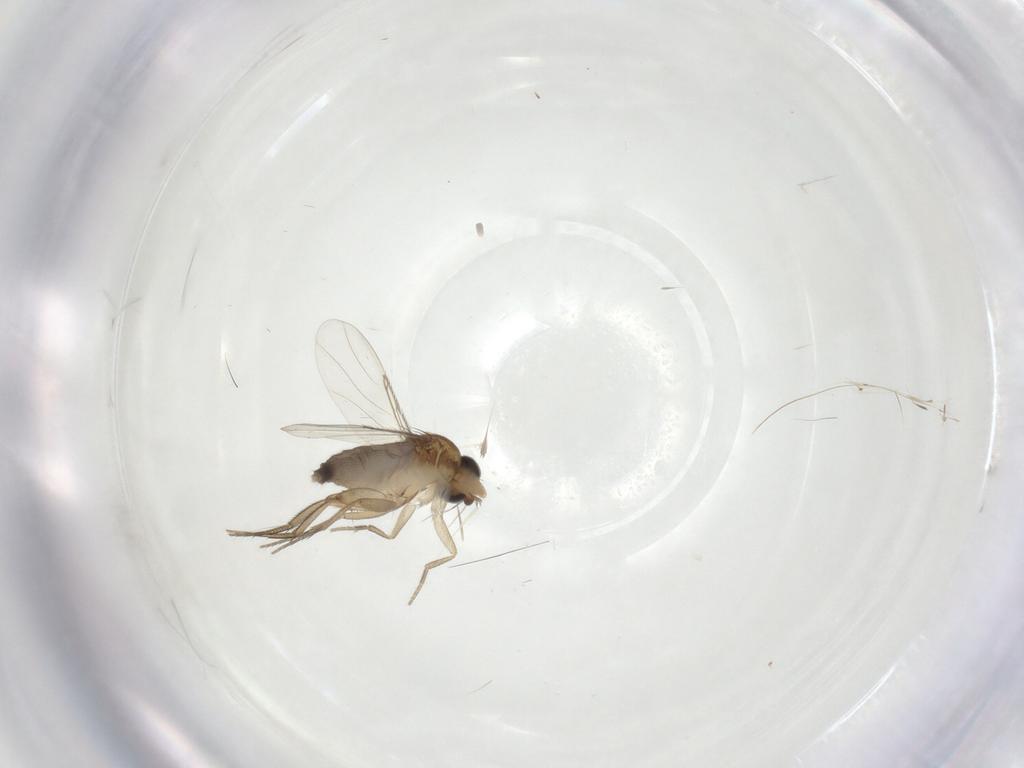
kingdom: Animalia
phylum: Arthropoda
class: Insecta
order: Diptera
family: Phoridae
